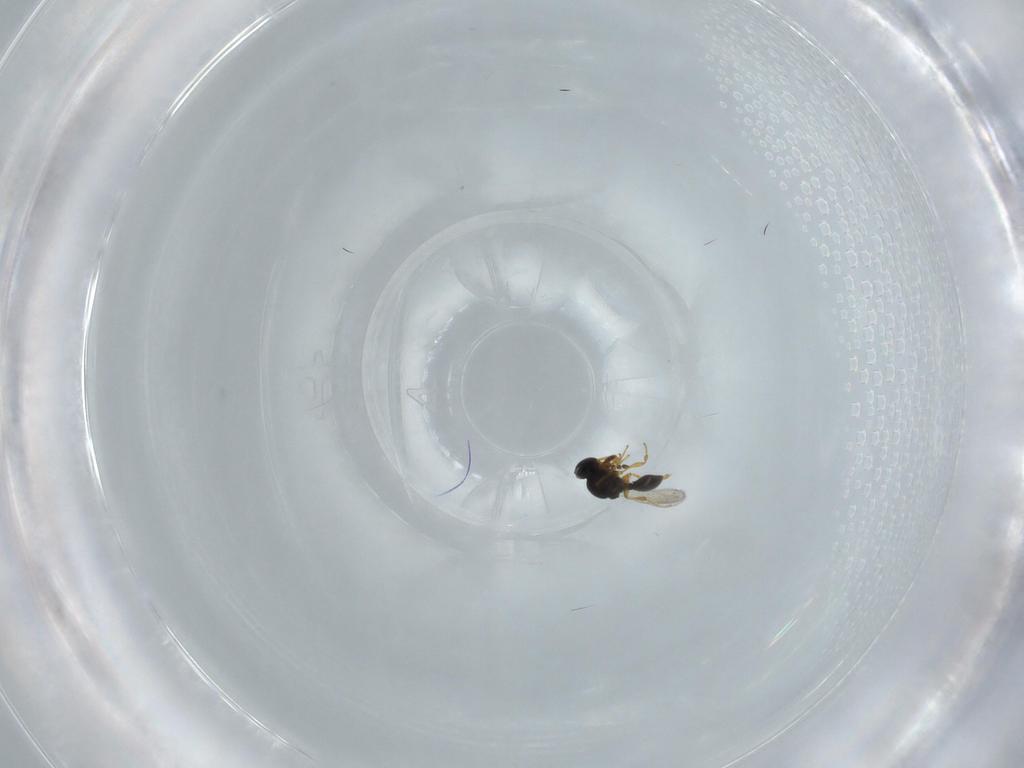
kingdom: Animalia
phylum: Arthropoda
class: Insecta
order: Hymenoptera
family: Platygastridae
